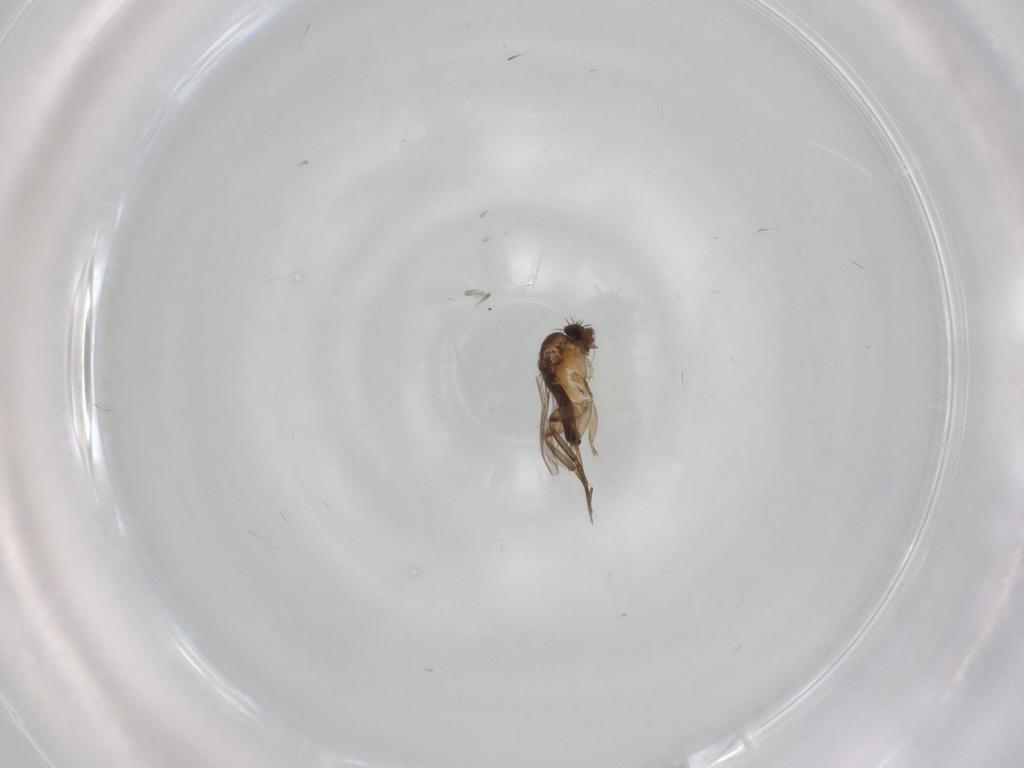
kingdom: Animalia
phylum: Arthropoda
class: Insecta
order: Diptera
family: Phoridae
